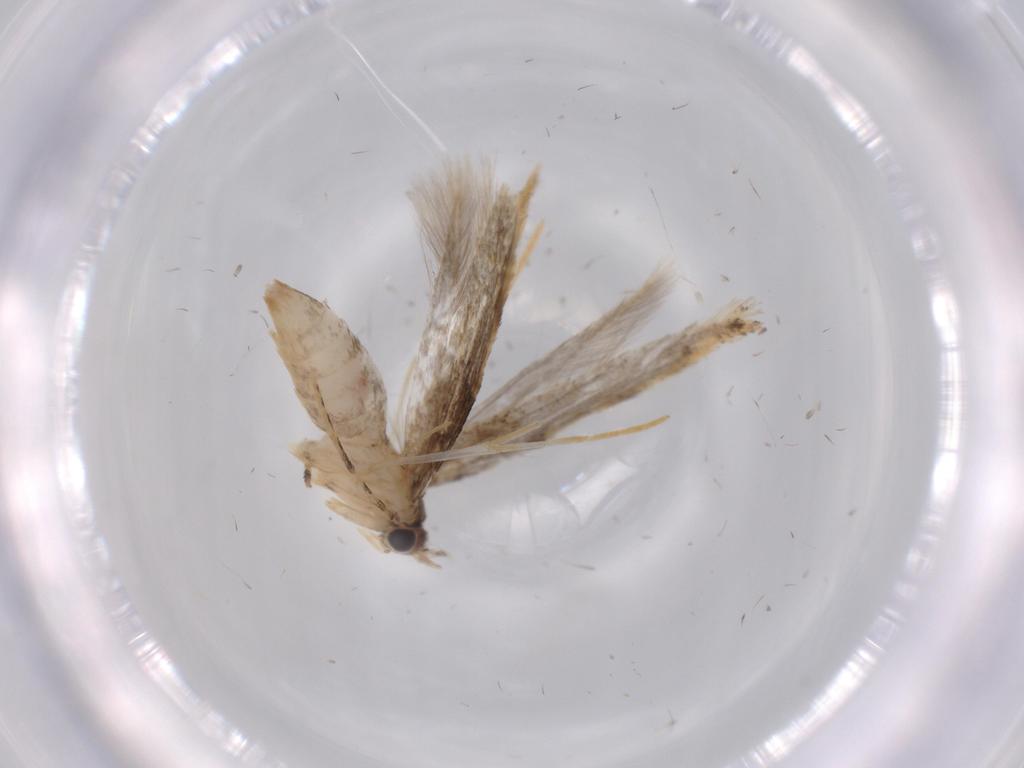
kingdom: Animalia
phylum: Arthropoda
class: Insecta
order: Lepidoptera
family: Tineidae
